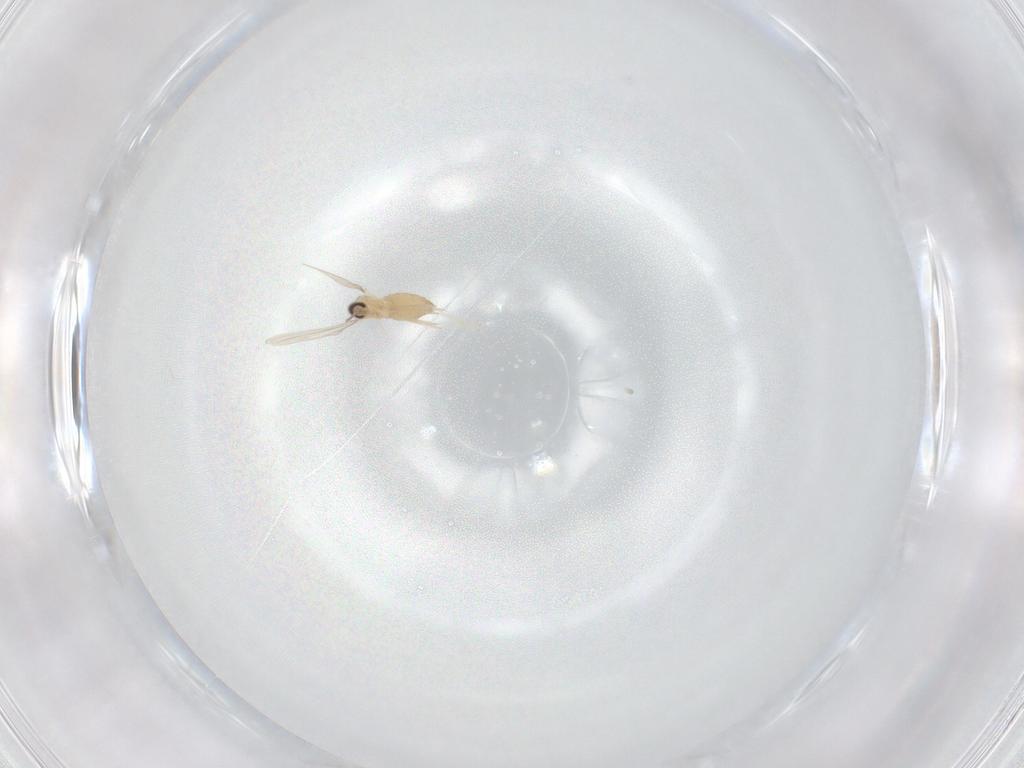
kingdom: Animalia
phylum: Arthropoda
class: Insecta
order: Diptera
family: Cecidomyiidae
